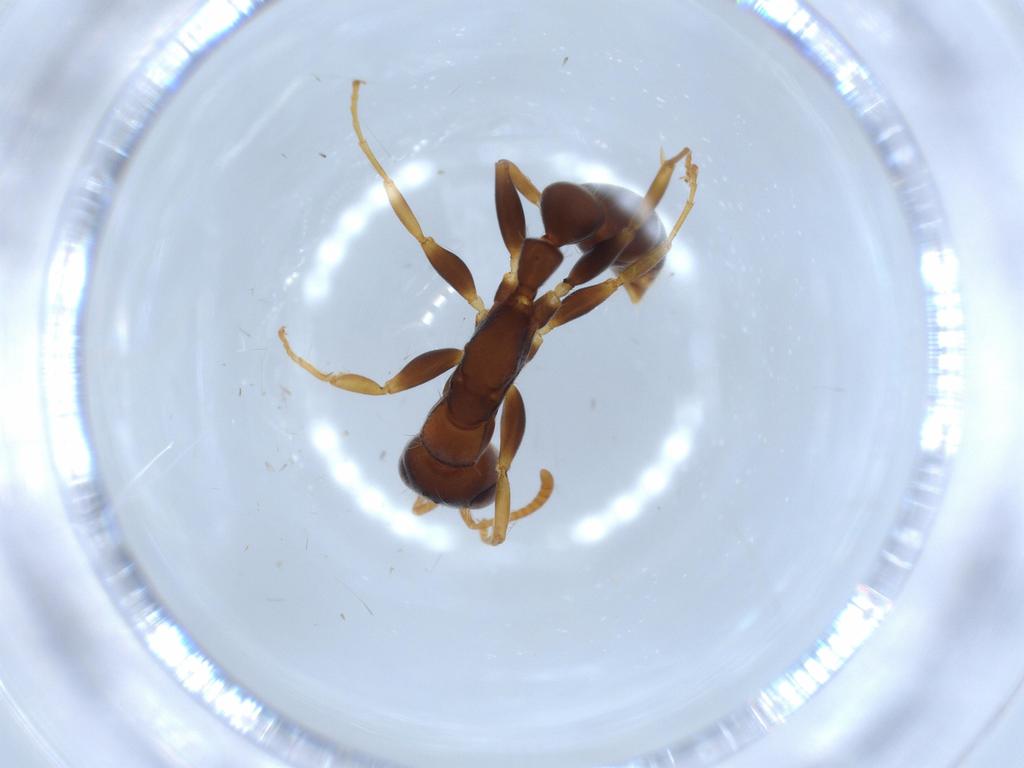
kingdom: Animalia
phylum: Arthropoda
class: Insecta
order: Hymenoptera
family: Formicidae
